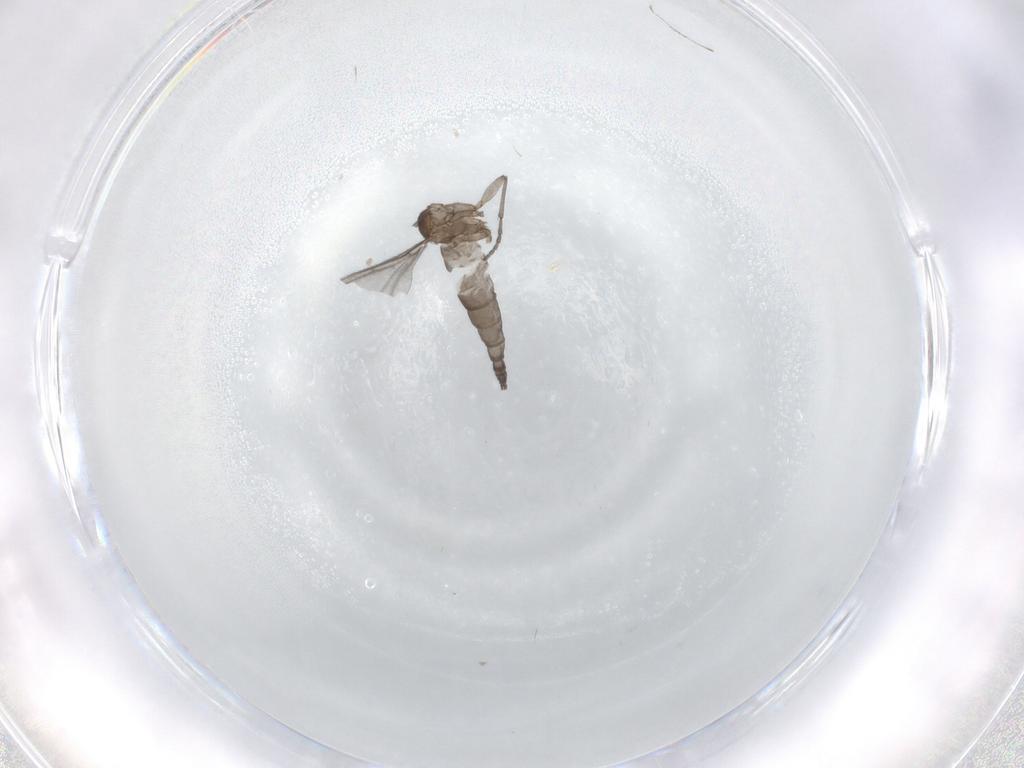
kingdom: Animalia
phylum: Arthropoda
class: Insecta
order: Diptera
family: Sciaridae
